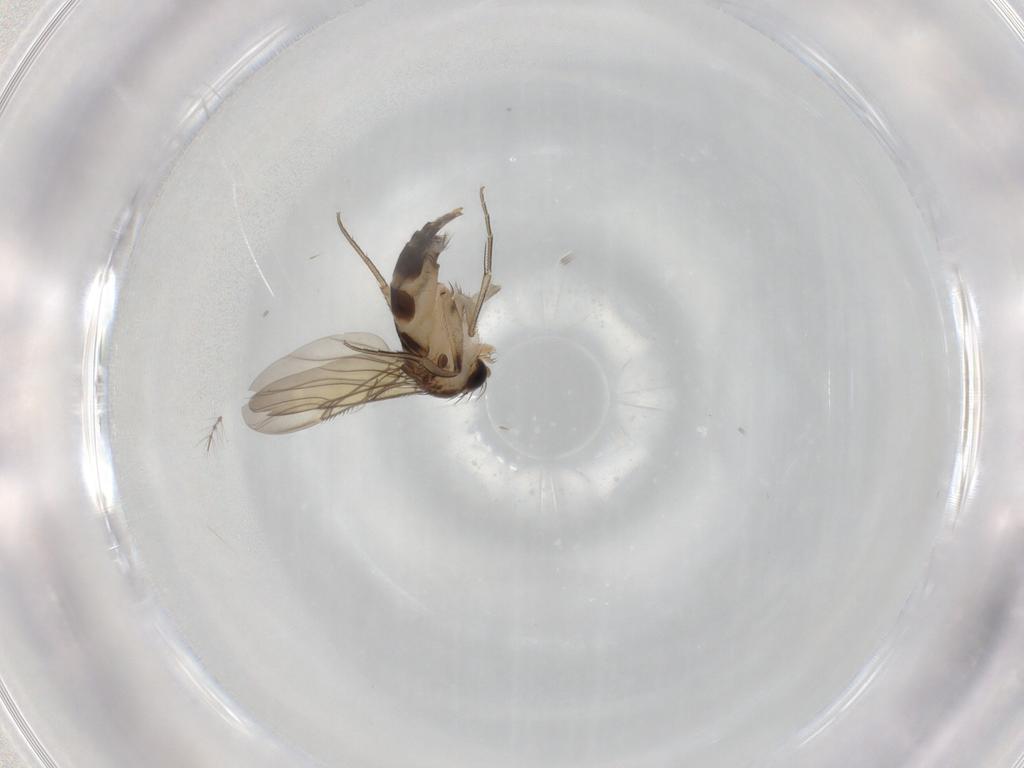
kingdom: Animalia
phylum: Arthropoda
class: Insecta
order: Diptera
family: Phoridae
